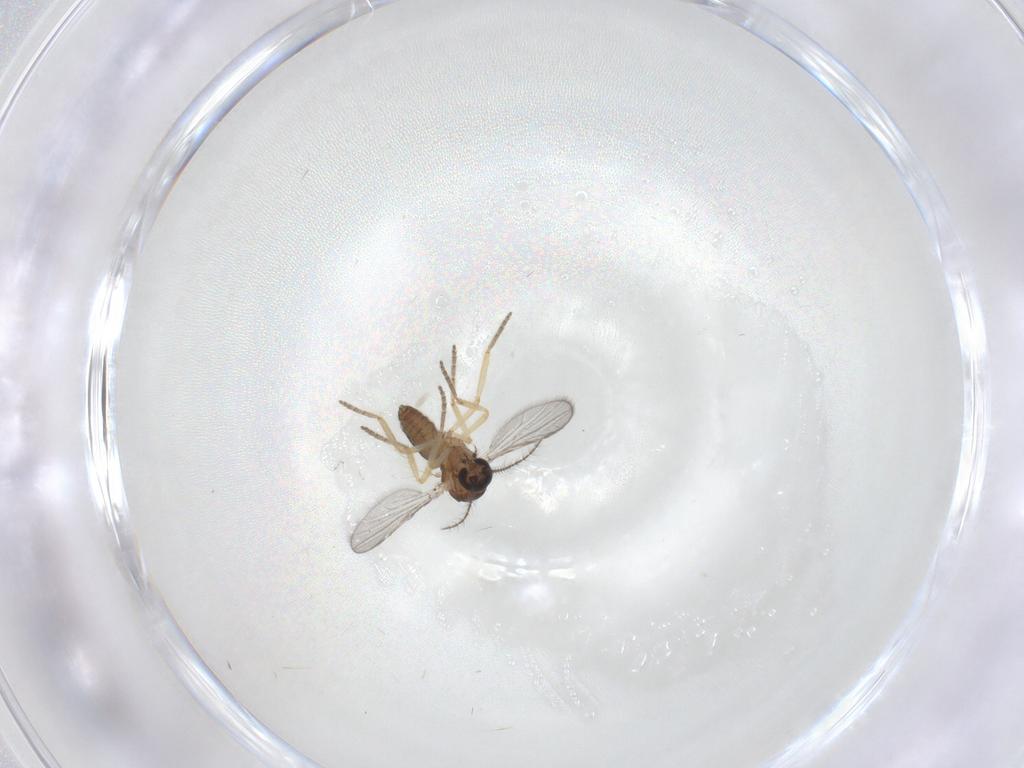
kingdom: Animalia
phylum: Arthropoda
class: Insecta
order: Diptera
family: Ceratopogonidae
